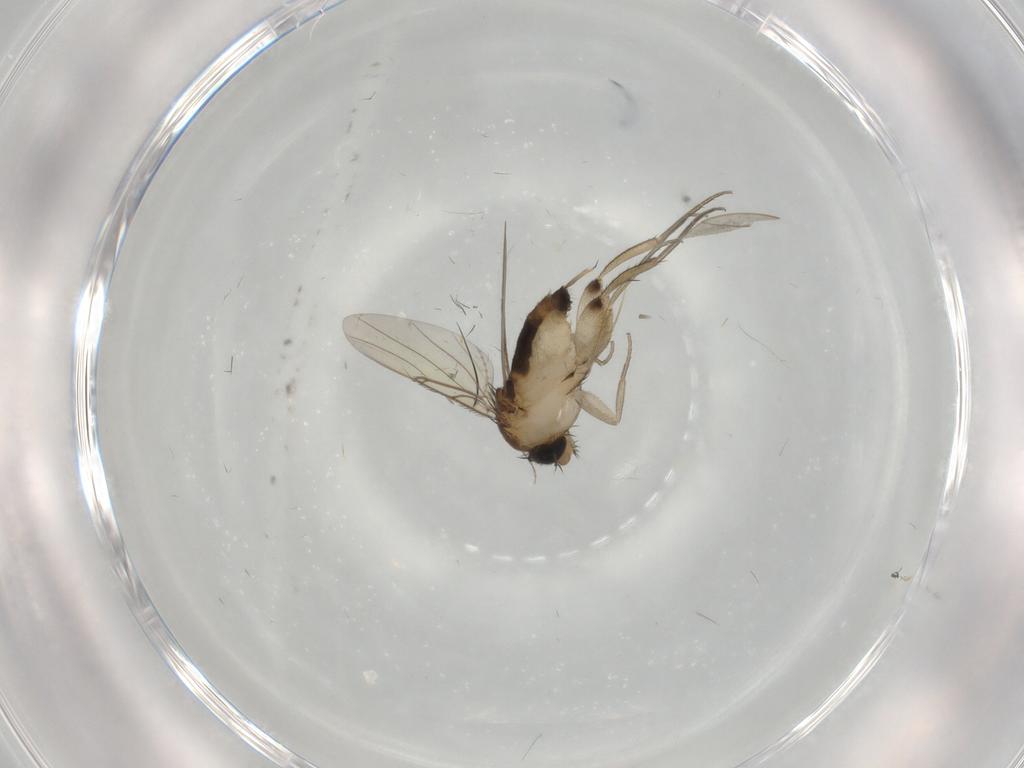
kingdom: Animalia
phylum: Arthropoda
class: Insecta
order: Diptera
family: Phoridae
